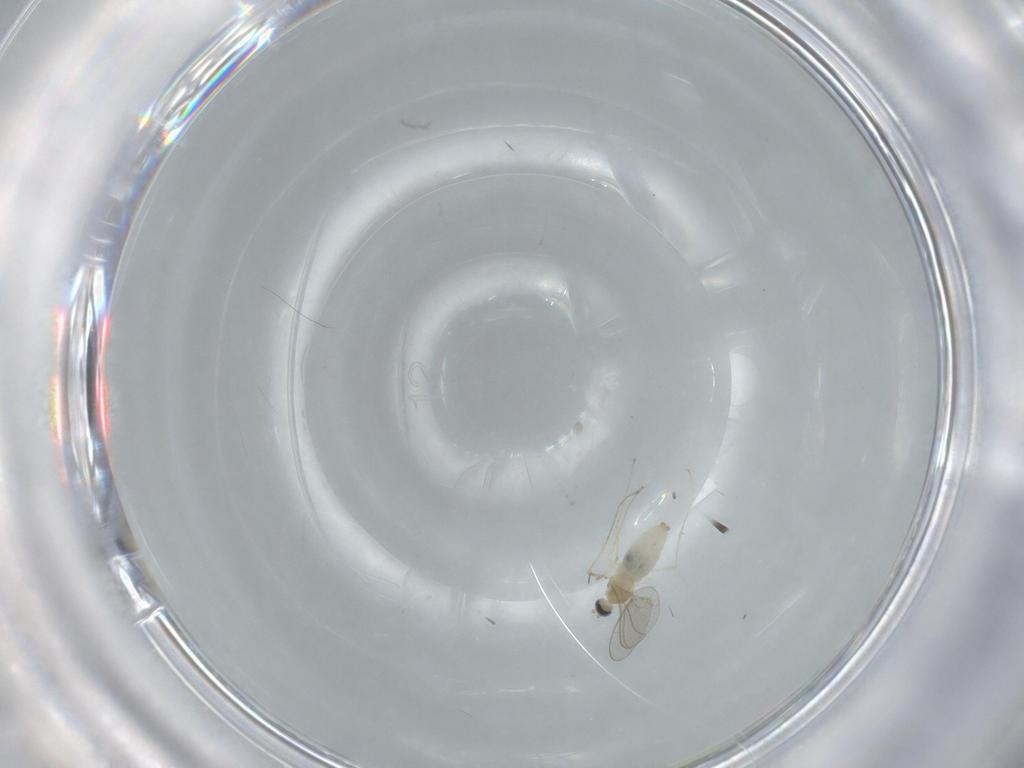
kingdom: Animalia
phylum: Arthropoda
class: Insecta
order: Diptera
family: Cecidomyiidae
